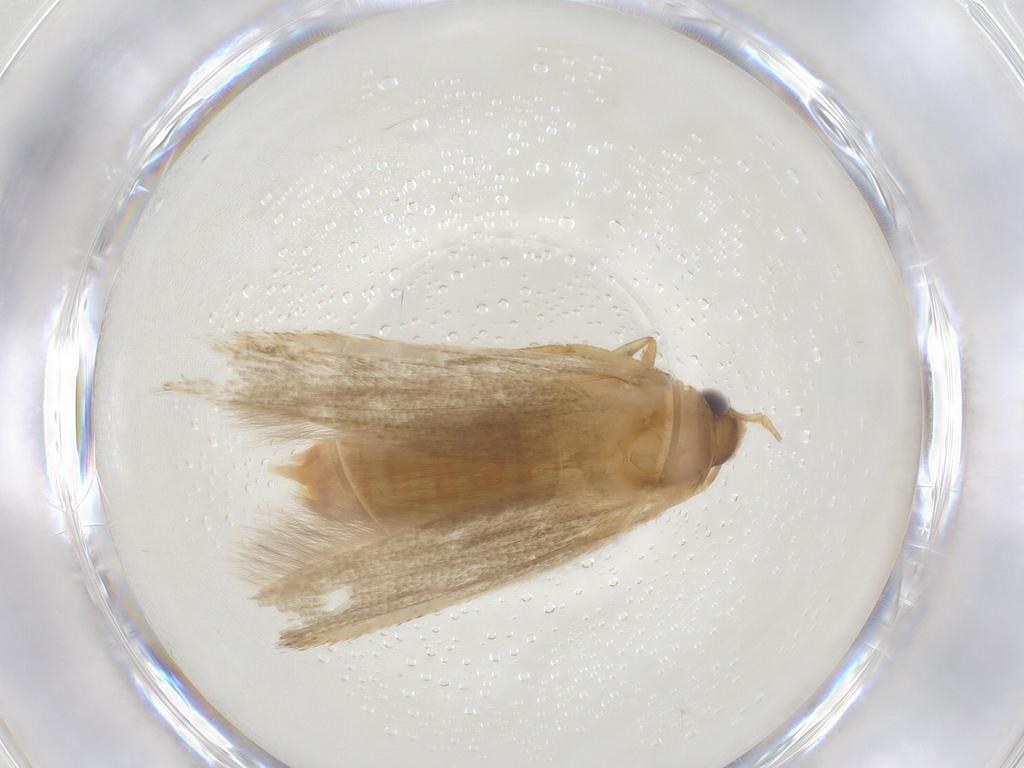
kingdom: Animalia
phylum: Arthropoda
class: Insecta
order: Lepidoptera
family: Blastobasidae
